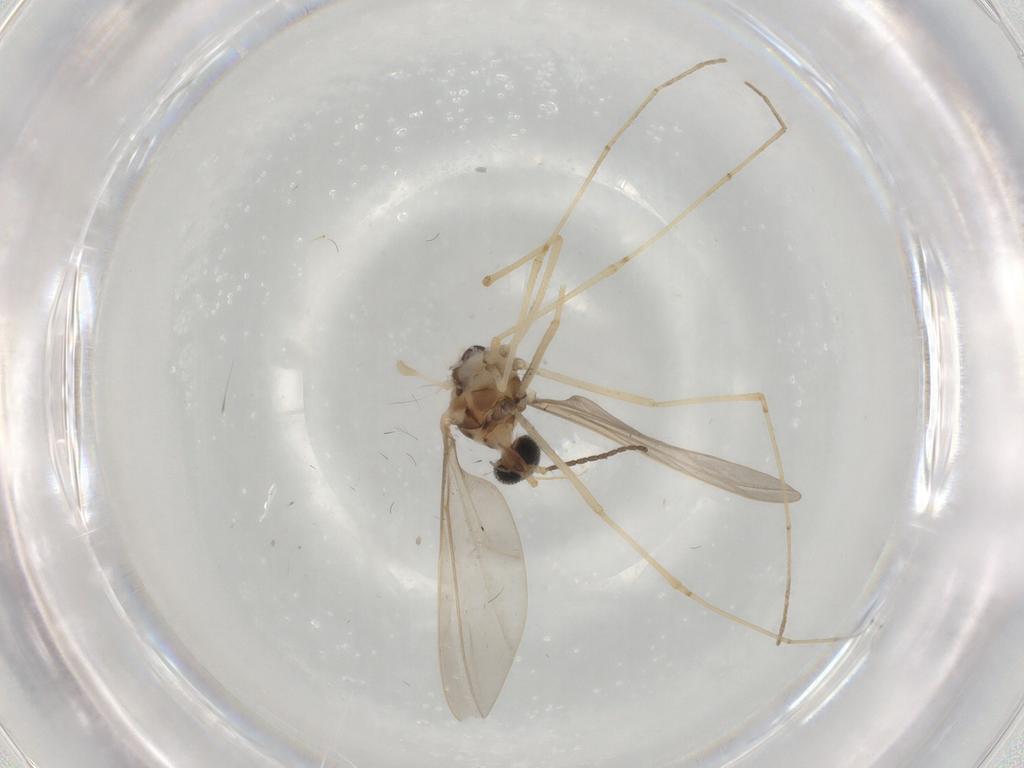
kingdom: Animalia
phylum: Arthropoda
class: Insecta
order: Diptera
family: Cecidomyiidae
